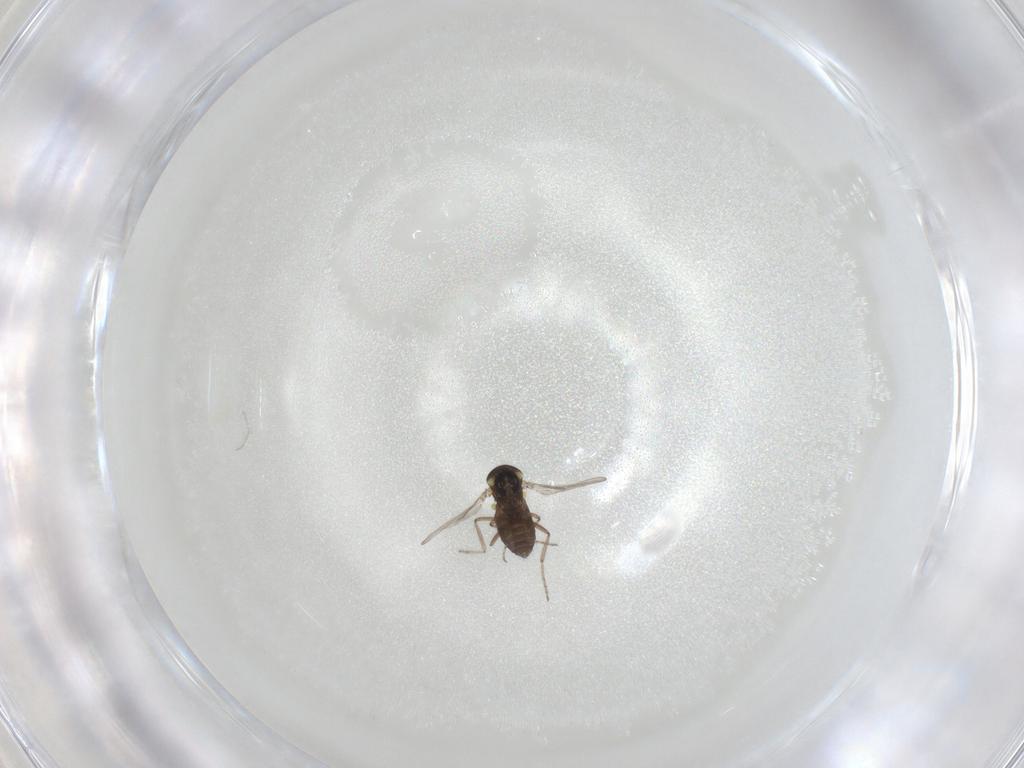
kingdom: Animalia
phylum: Arthropoda
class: Insecta
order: Diptera
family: Ceratopogonidae
